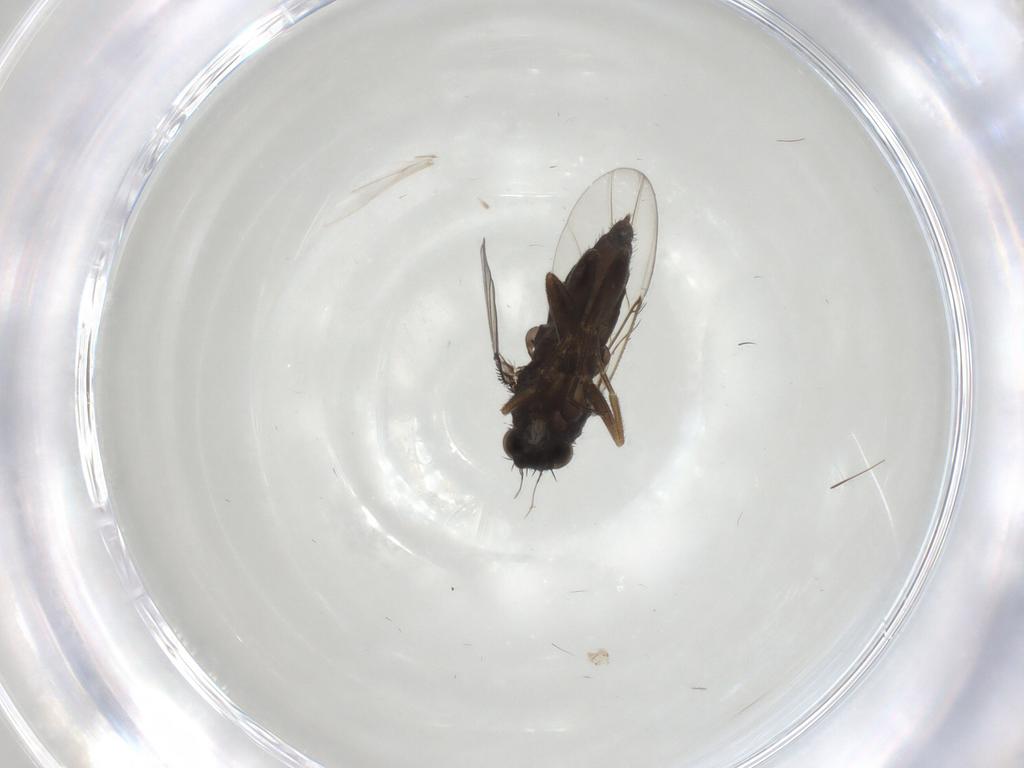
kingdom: Animalia
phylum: Arthropoda
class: Insecta
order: Diptera
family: Phoridae
